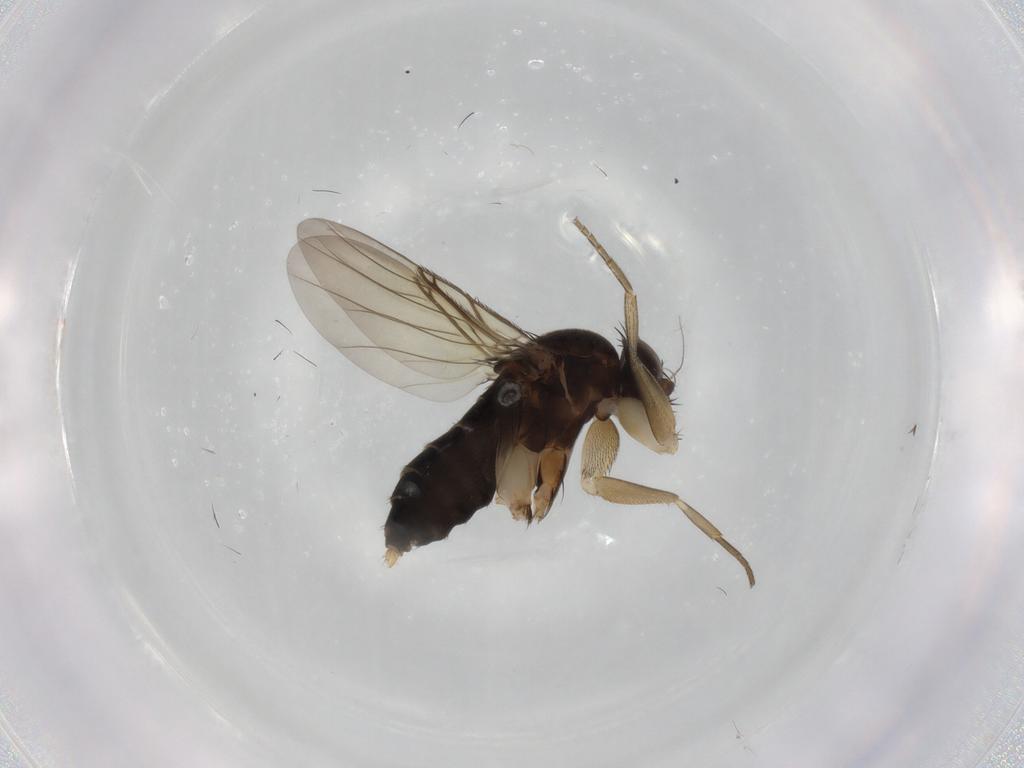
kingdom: Animalia
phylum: Arthropoda
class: Insecta
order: Diptera
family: Phoridae
